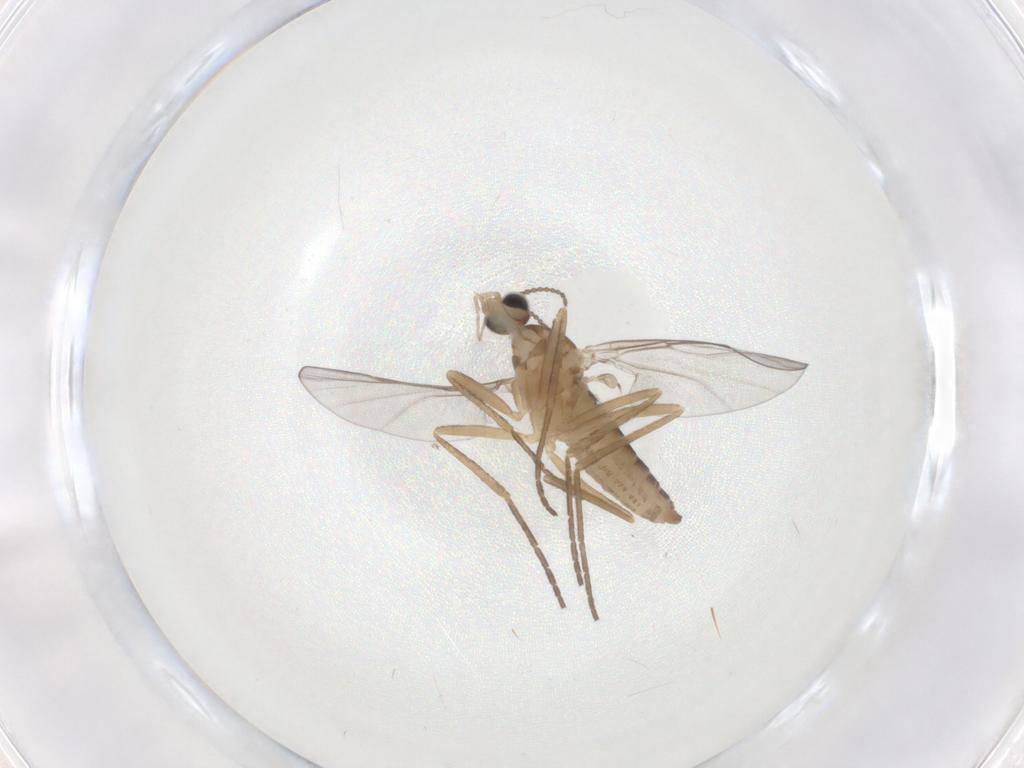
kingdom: Animalia
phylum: Arthropoda
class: Insecta
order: Diptera
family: Cecidomyiidae
